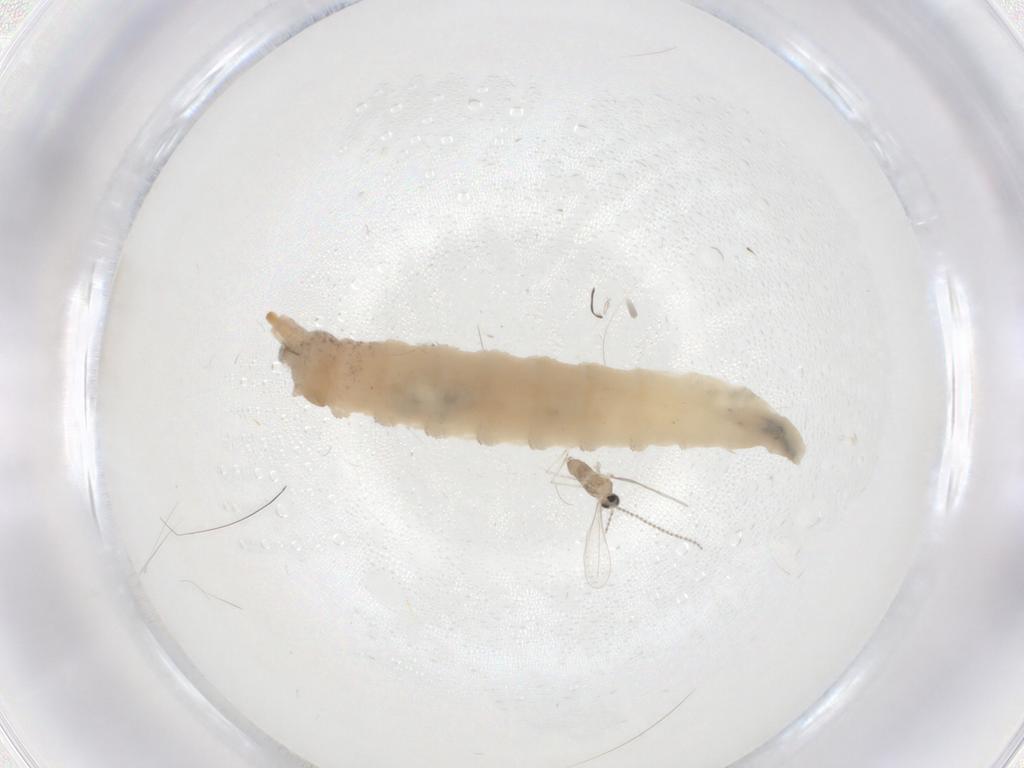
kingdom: Animalia
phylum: Arthropoda
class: Insecta
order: Diptera
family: Cecidomyiidae
